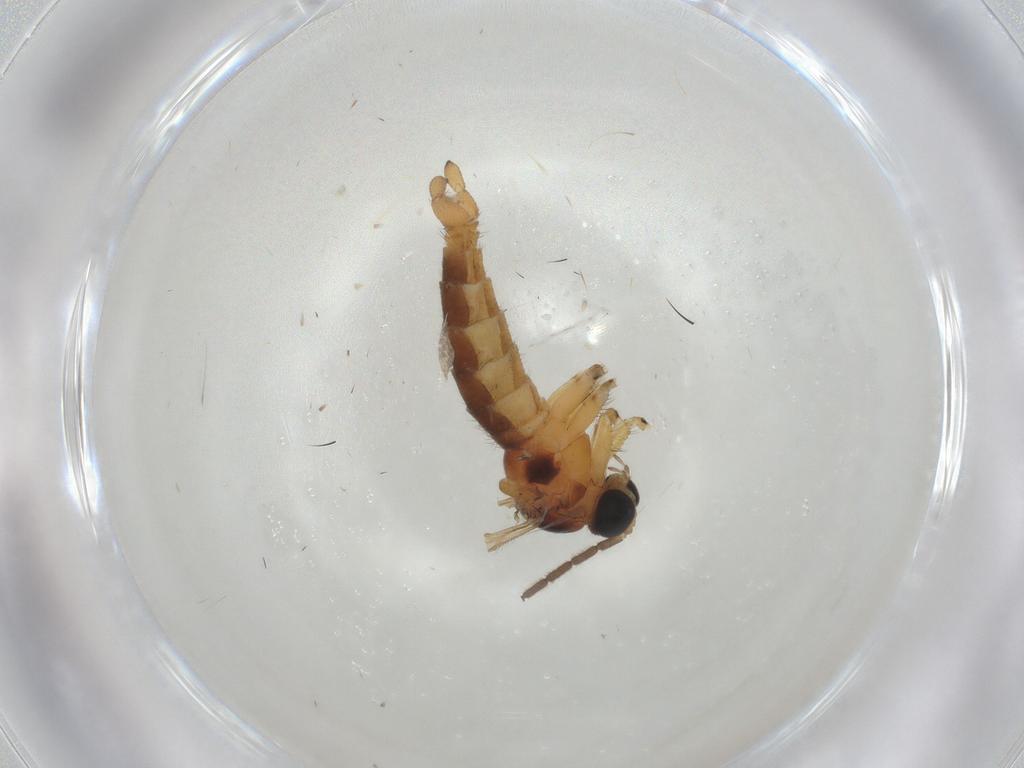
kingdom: Animalia
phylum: Arthropoda
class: Insecta
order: Diptera
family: Sciaridae
